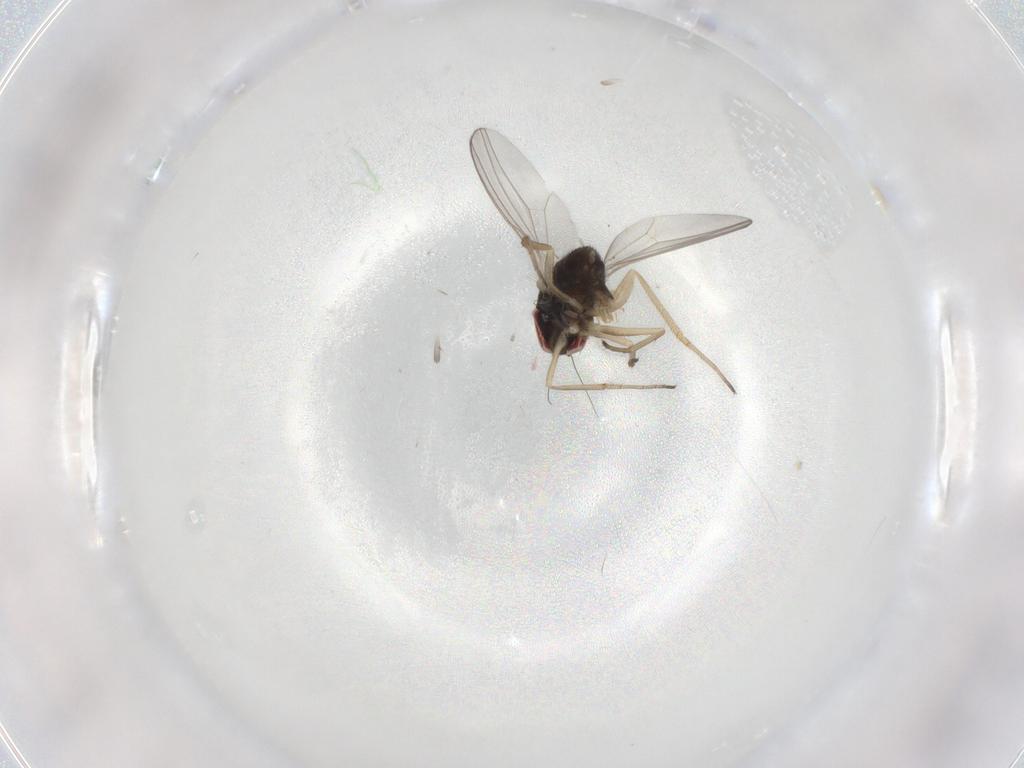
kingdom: Animalia
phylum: Arthropoda
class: Insecta
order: Diptera
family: Dolichopodidae
